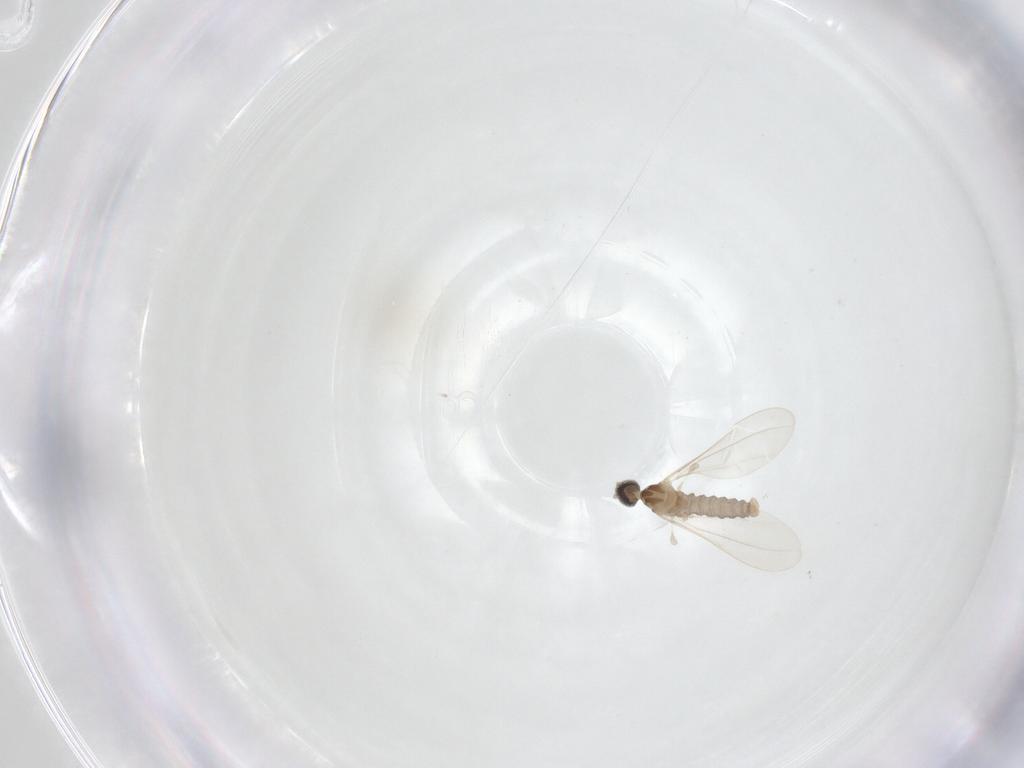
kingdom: Animalia
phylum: Arthropoda
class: Insecta
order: Diptera
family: Cecidomyiidae
